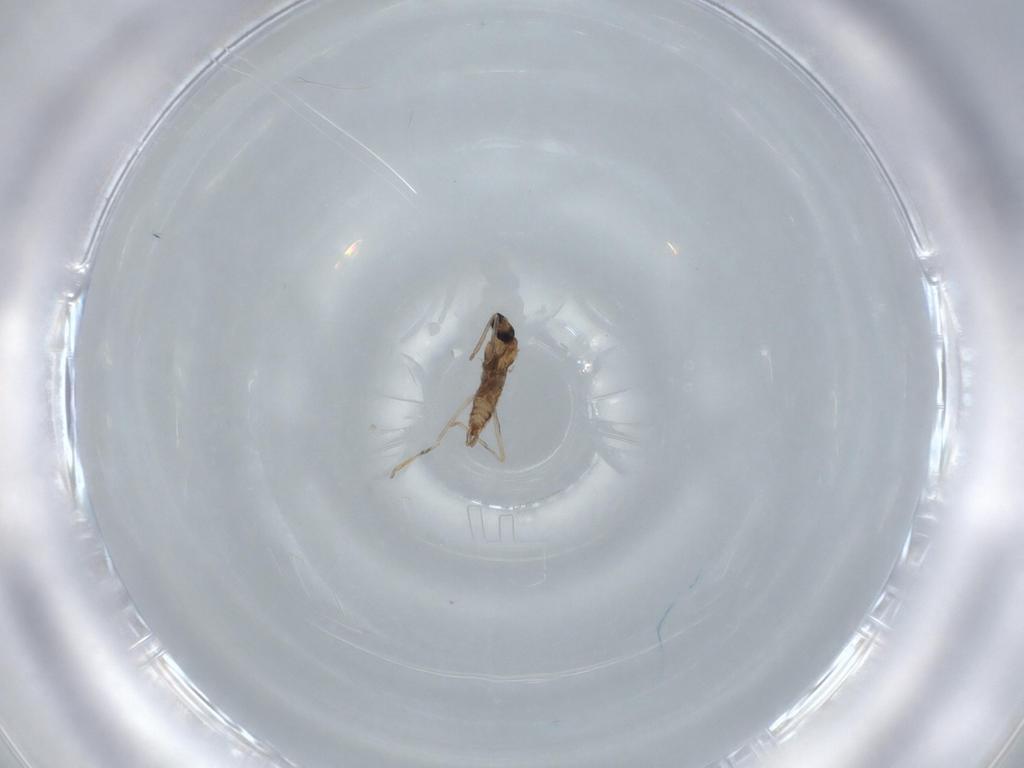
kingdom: Animalia
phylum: Arthropoda
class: Insecta
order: Diptera
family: Cecidomyiidae
